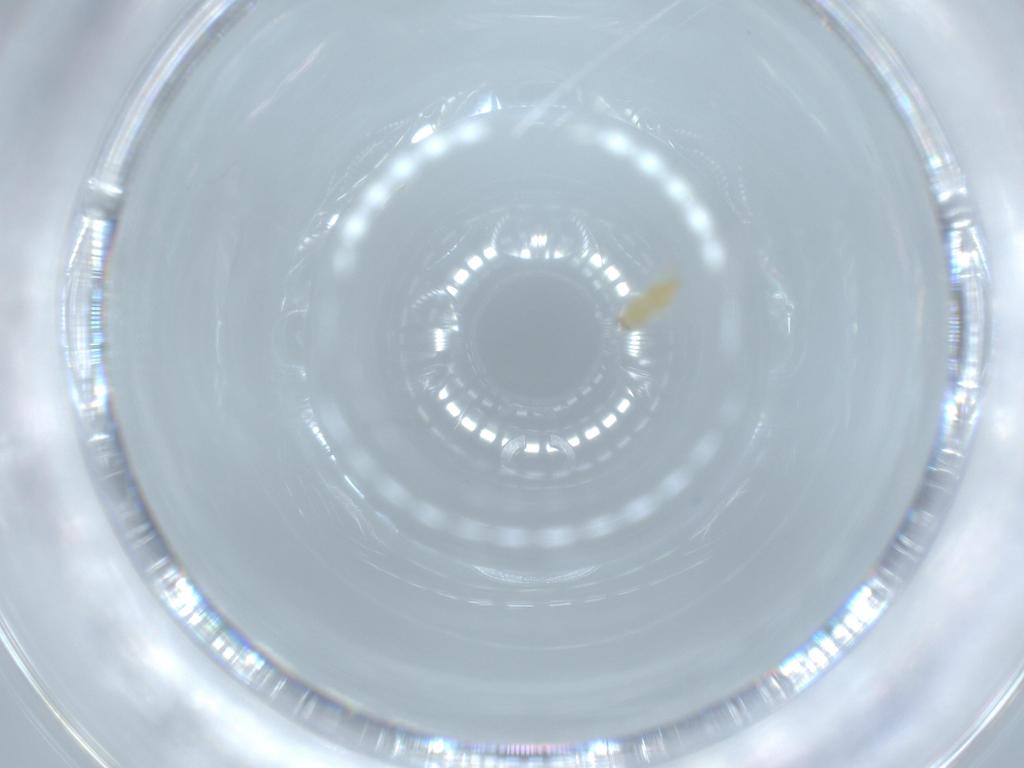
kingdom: Animalia
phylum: Arthropoda
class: Insecta
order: Thysanoptera
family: Thripidae
